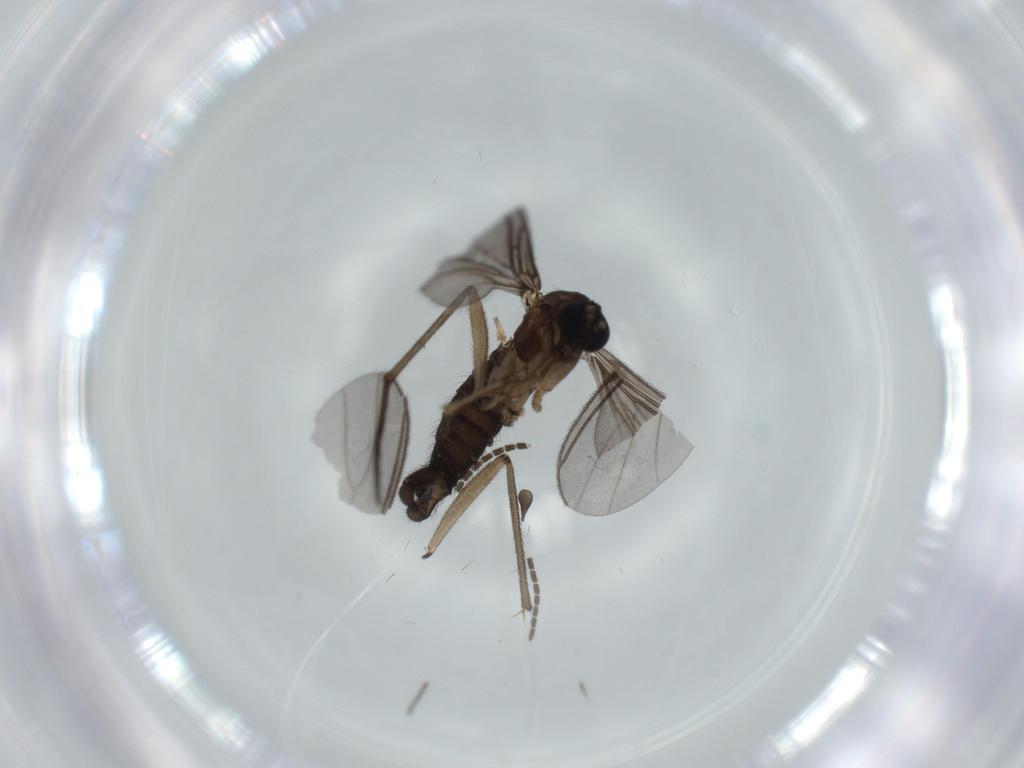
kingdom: Animalia
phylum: Arthropoda
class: Insecta
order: Diptera
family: Sciaridae
